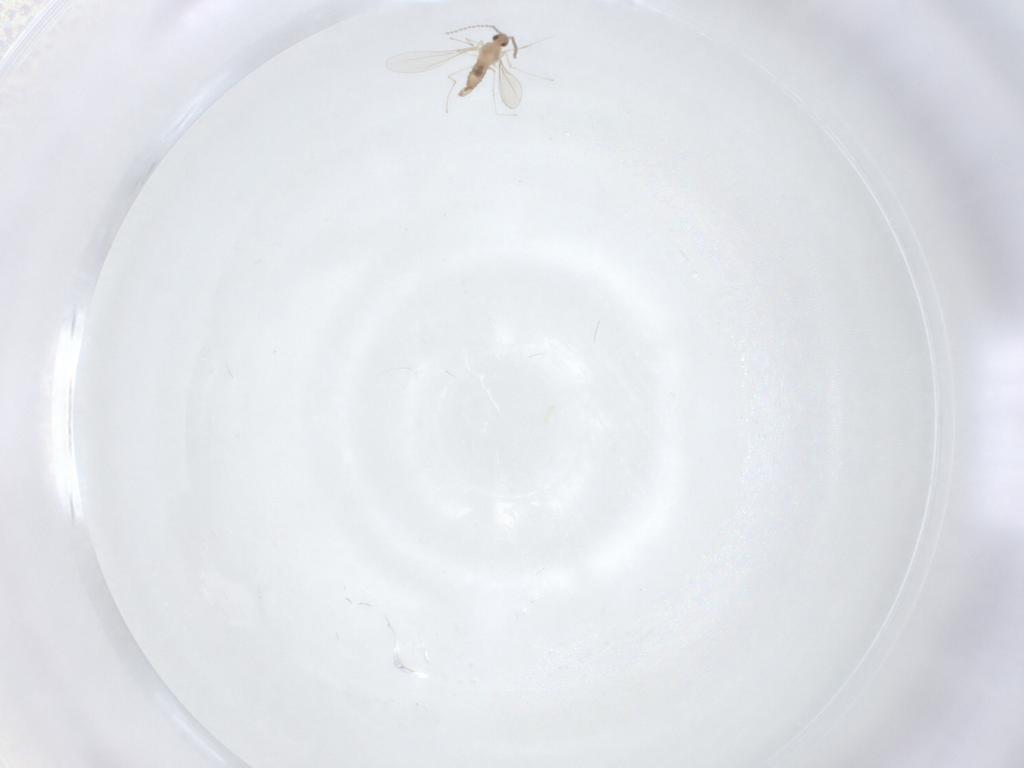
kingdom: Animalia
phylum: Arthropoda
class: Insecta
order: Diptera
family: Cecidomyiidae
